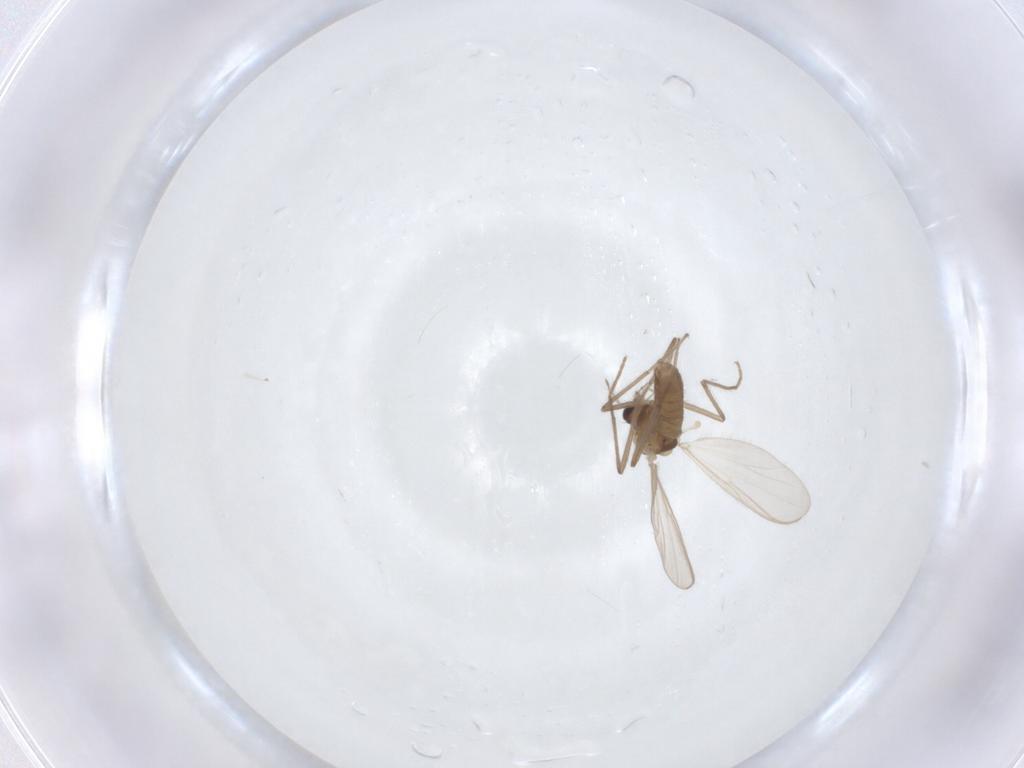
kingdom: Animalia
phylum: Arthropoda
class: Insecta
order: Diptera
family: Chironomidae
